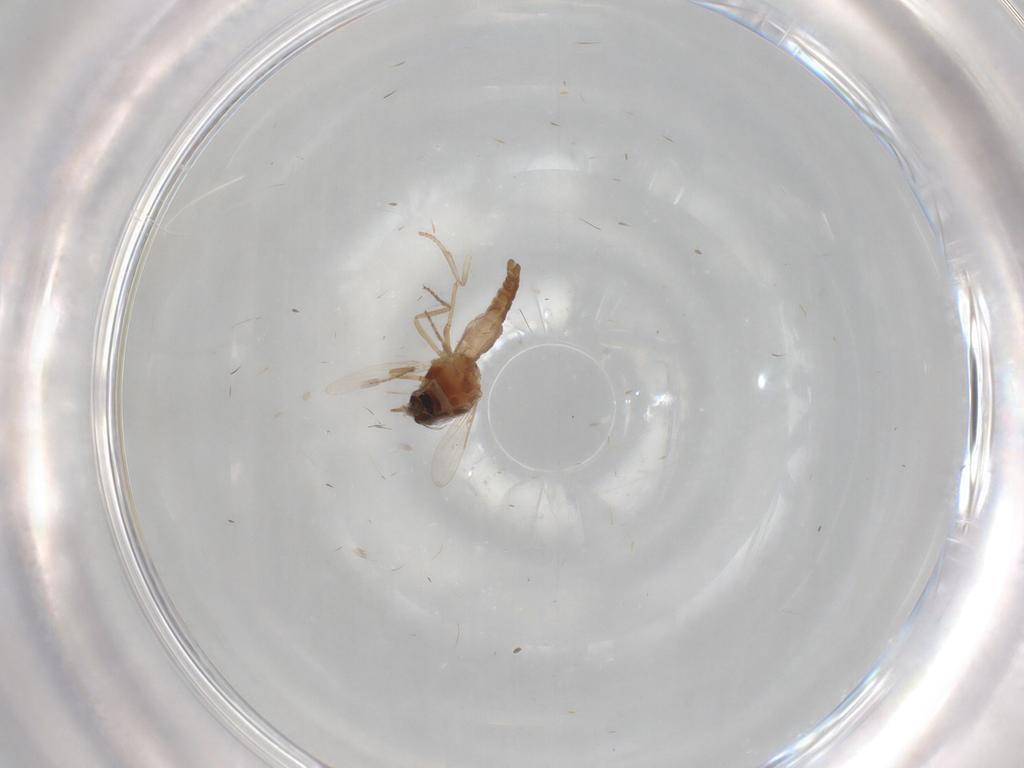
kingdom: Animalia
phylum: Arthropoda
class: Insecta
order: Diptera
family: Ceratopogonidae
